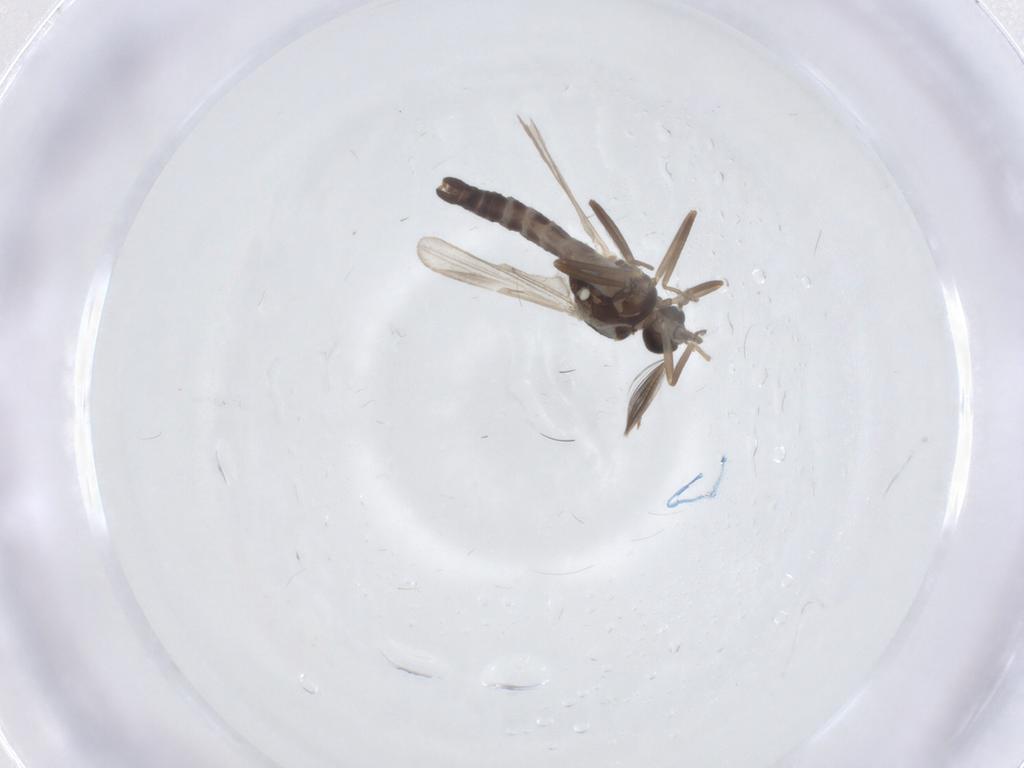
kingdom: Animalia
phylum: Arthropoda
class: Insecta
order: Diptera
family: Ceratopogonidae
